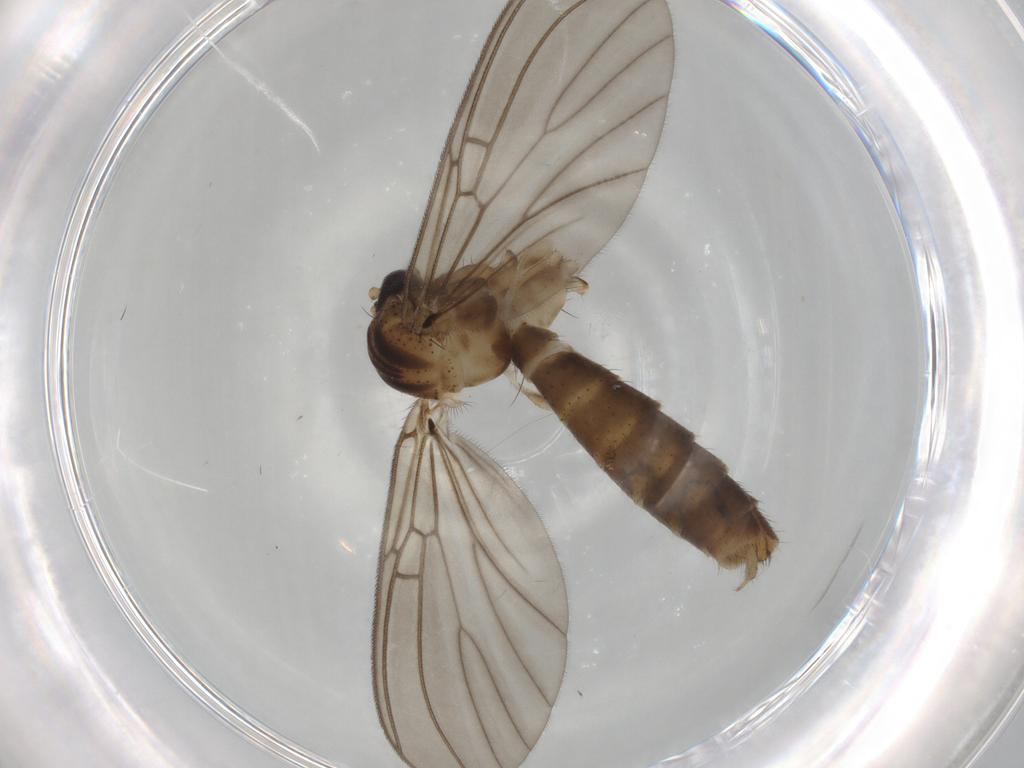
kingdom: Animalia
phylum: Arthropoda
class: Insecta
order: Diptera
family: Mycetophilidae
